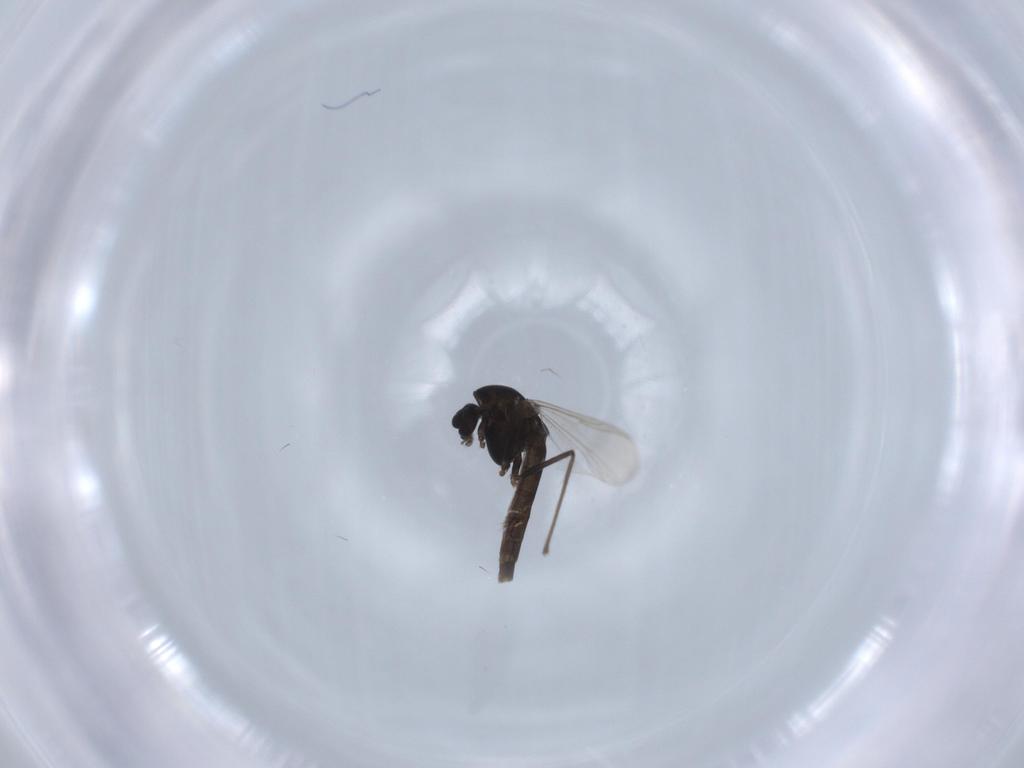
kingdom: Animalia
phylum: Arthropoda
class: Insecta
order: Diptera
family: Chironomidae
